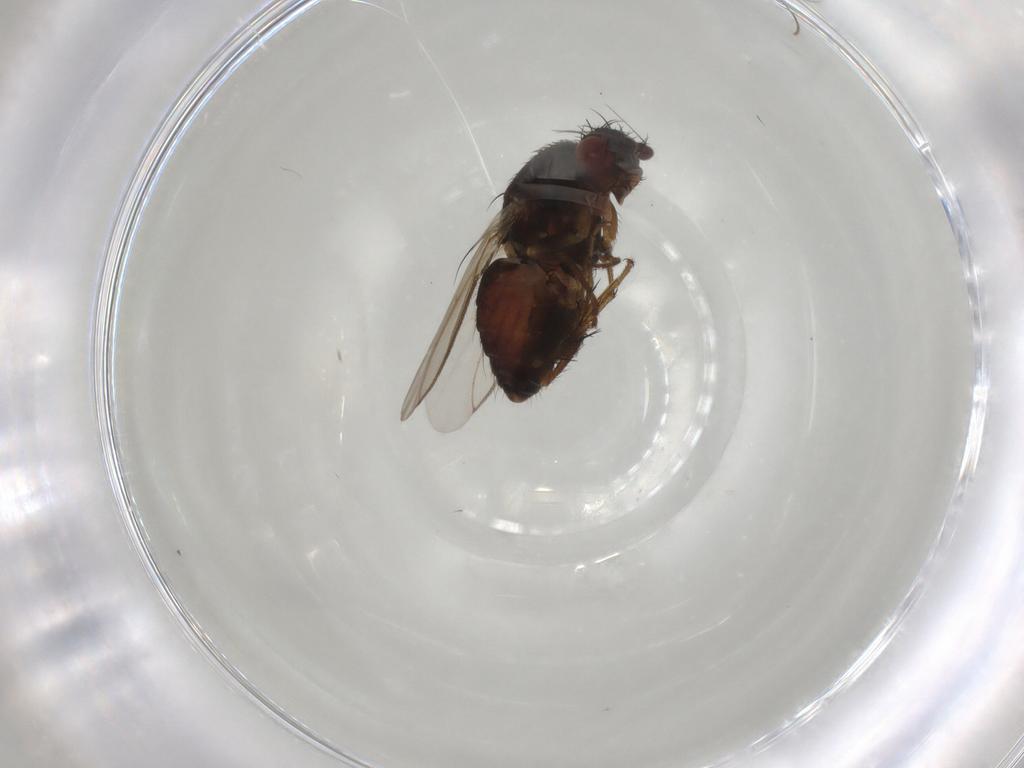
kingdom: Animalia
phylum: Arthropoda
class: Insecta
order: Diptera
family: Sphaeroceridae
